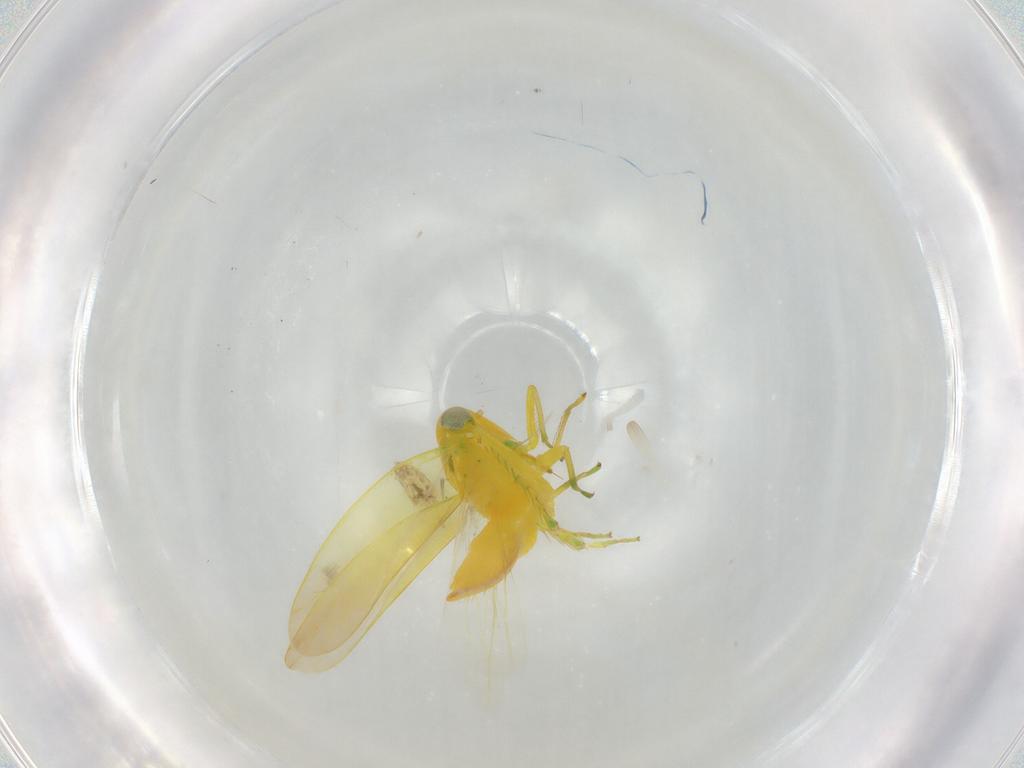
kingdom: Animalia
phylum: Arthropoda
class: Insecta
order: Hemiptera
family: Cicadellidae
